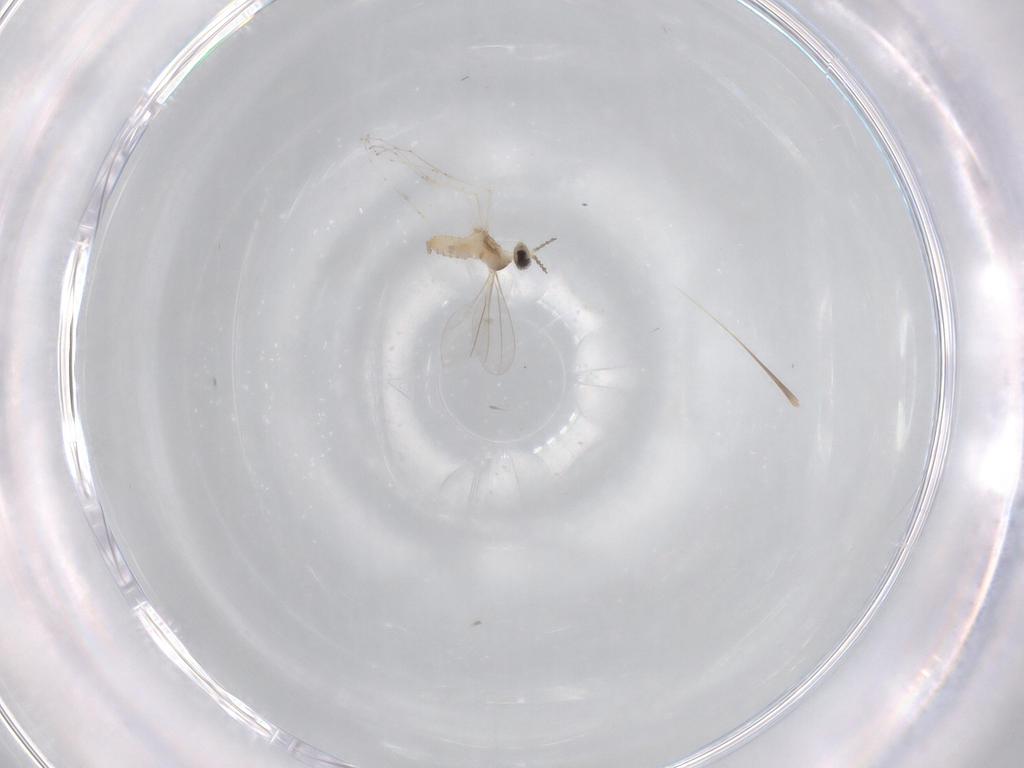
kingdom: Animalia
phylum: Arthropoda
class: Insecta
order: Diptera
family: Cecidomyiidae
